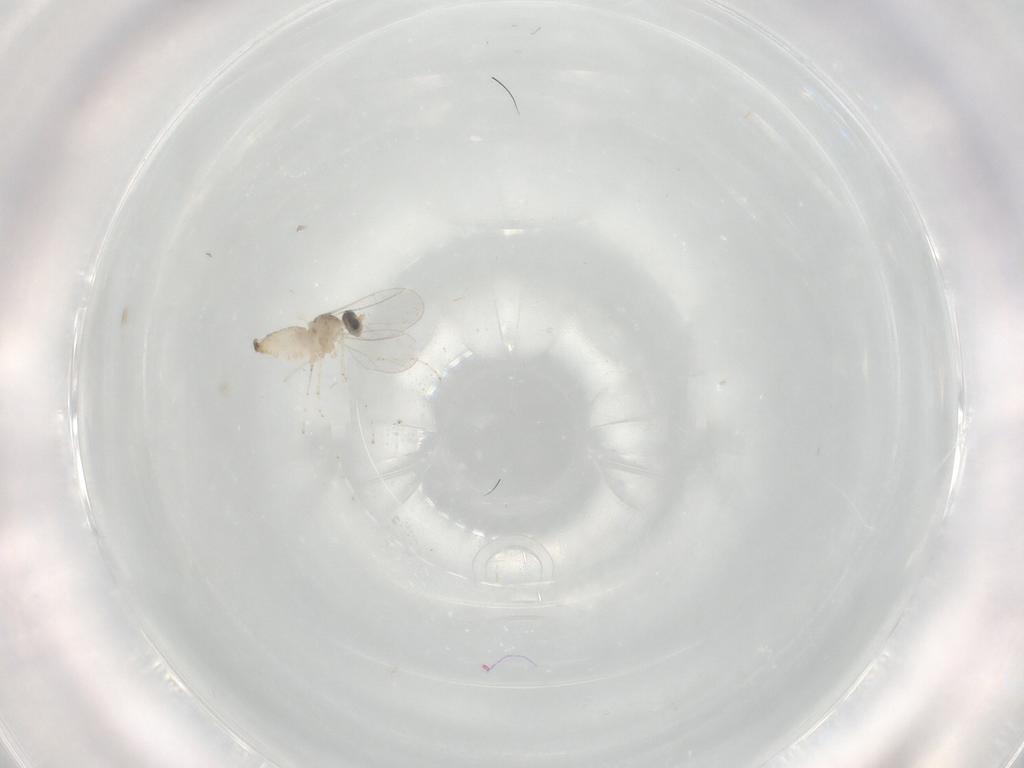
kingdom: Animalia
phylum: Arthropoda
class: Insecta
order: Diptera
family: Cecidomyiidae
